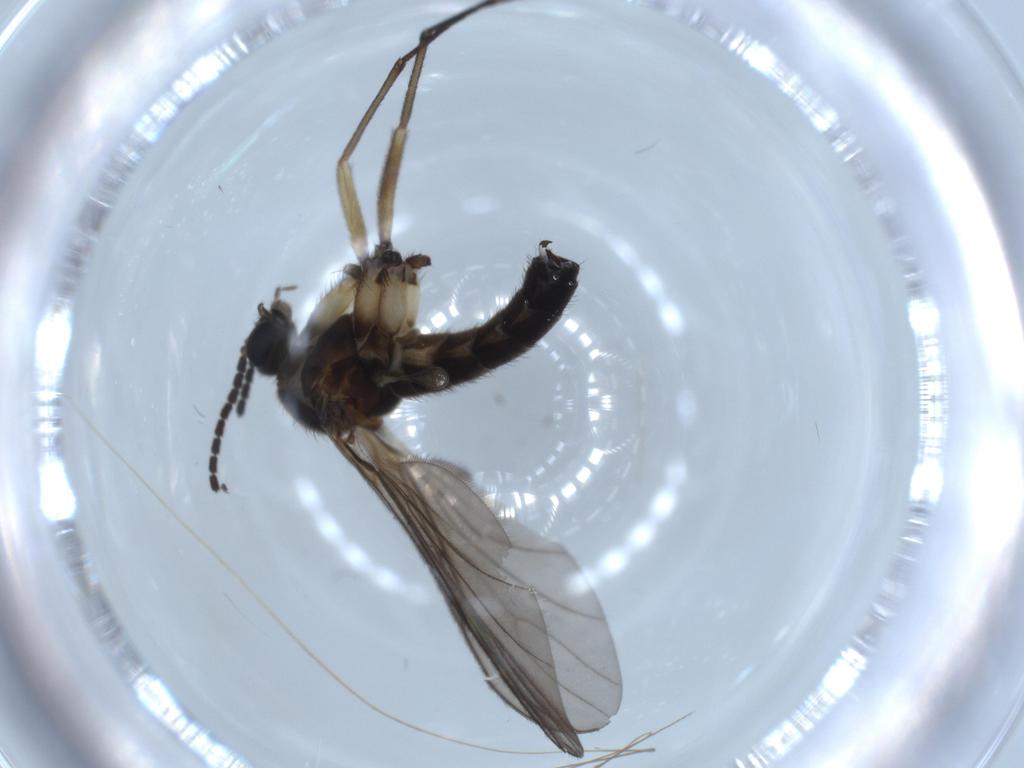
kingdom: Animalia
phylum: Arthropoda
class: Insecta
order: Diptera
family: Sciaridae
